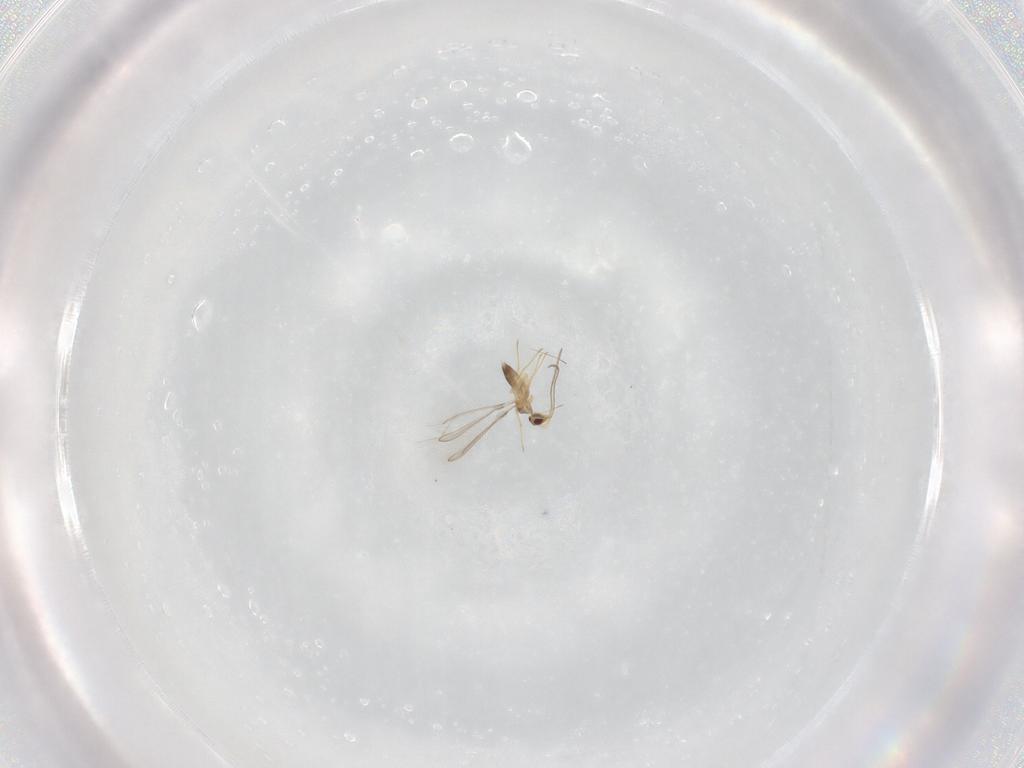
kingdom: Animalia
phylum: Arthropoda
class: Insecta
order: Hymenoptera
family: Mymaridae
